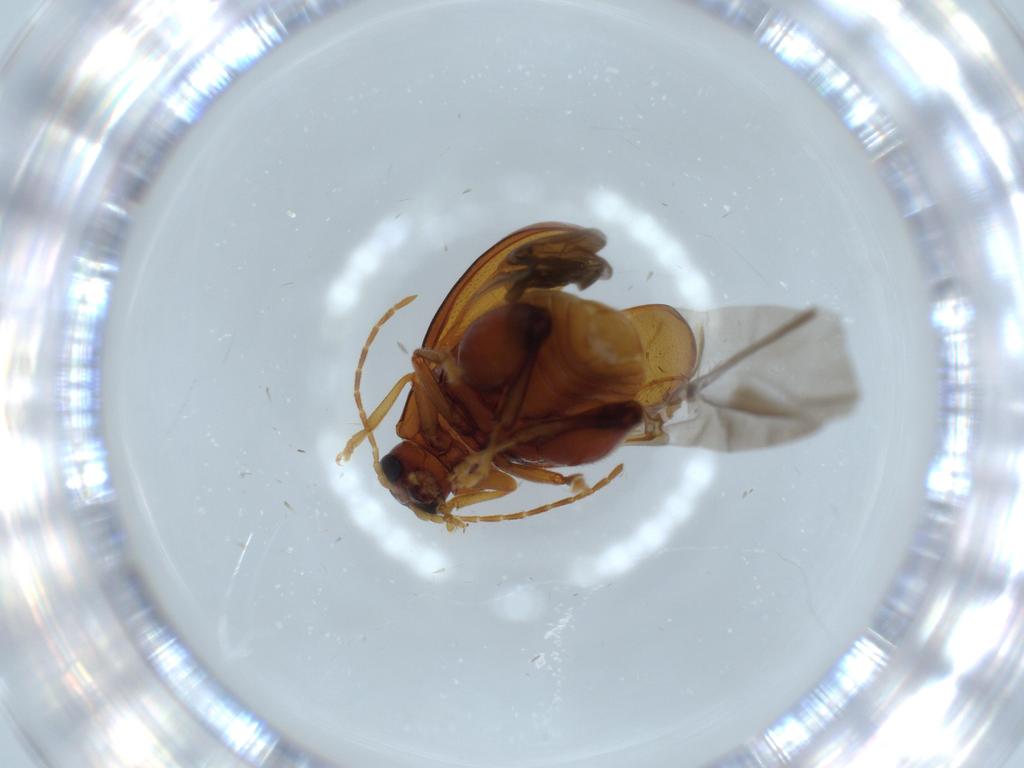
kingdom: Animalia
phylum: Arthropoda
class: Insecta
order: Coleoptera
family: Chrysomelidae
